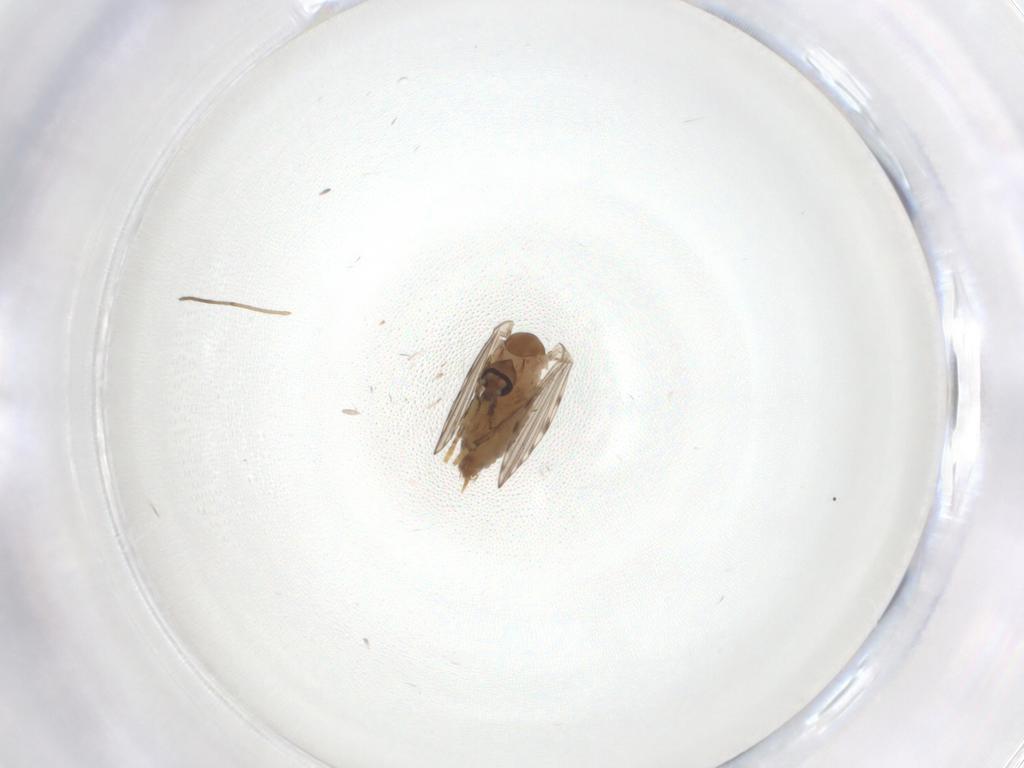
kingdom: Animalia
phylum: Arthropoda
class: Insecta
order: Diptera
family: Psychodidae
